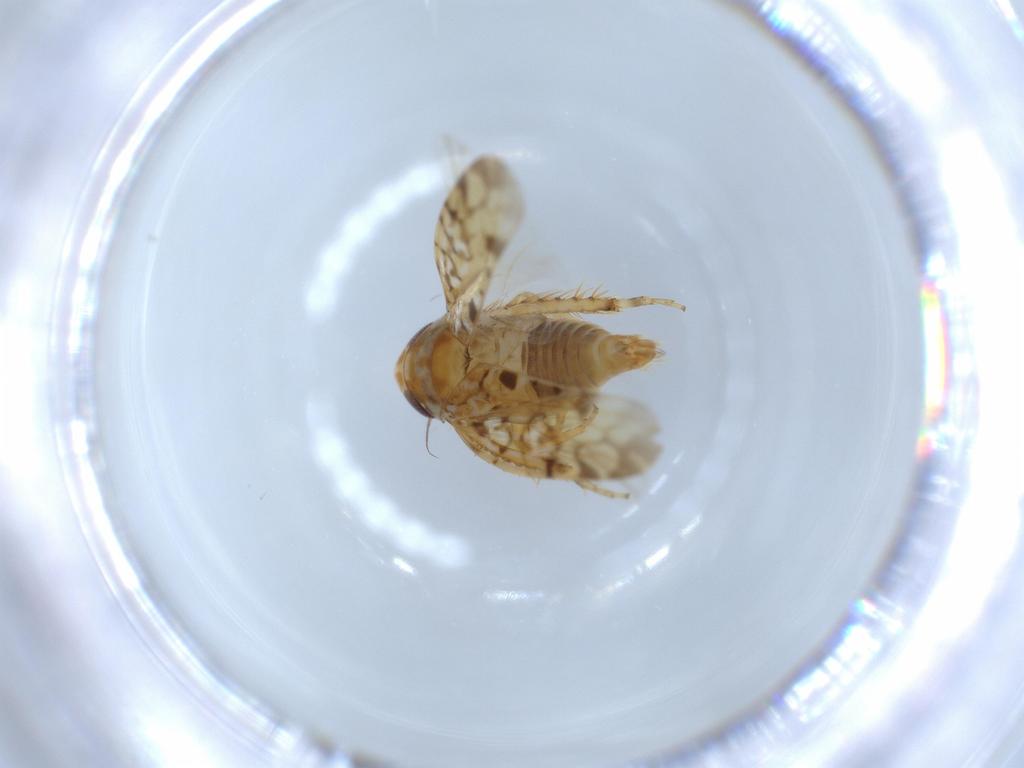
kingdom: Animalia
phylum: Arthropoda
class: Insecta
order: Hemiptera
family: Cicadellidae
